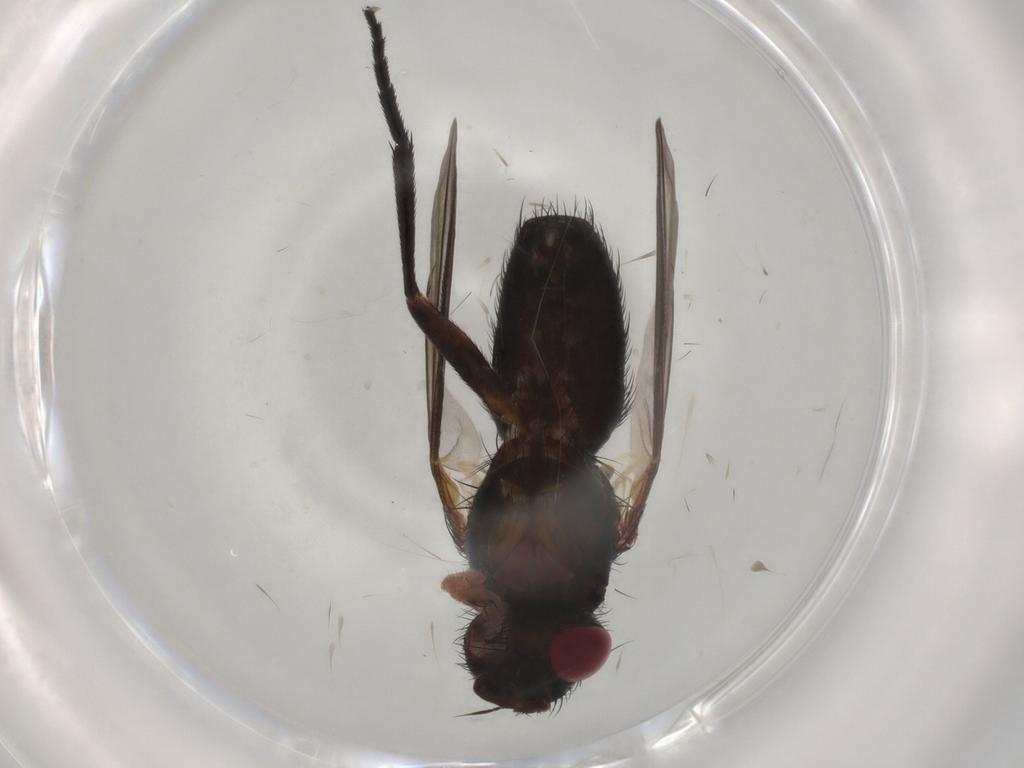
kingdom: Animalia
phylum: Arthropoda
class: Insecta
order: Diptera
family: Tachinidae
